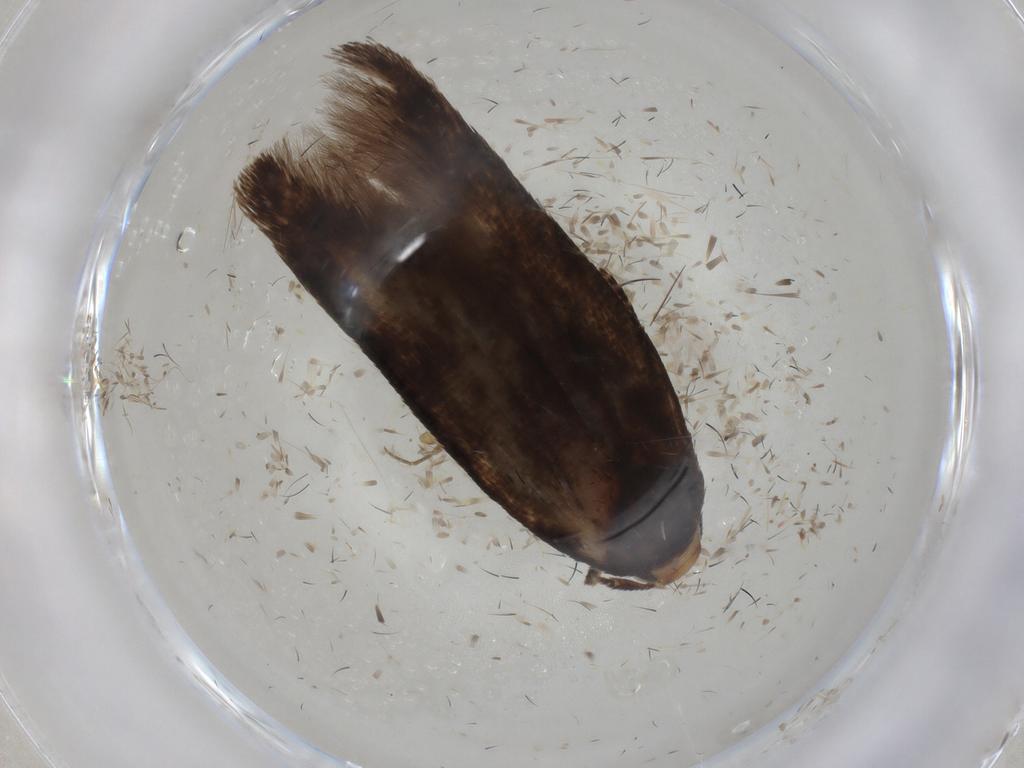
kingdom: Animalia
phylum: Arthropoda
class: Insecta
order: Lepidoptera
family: Cosmopterigidae
